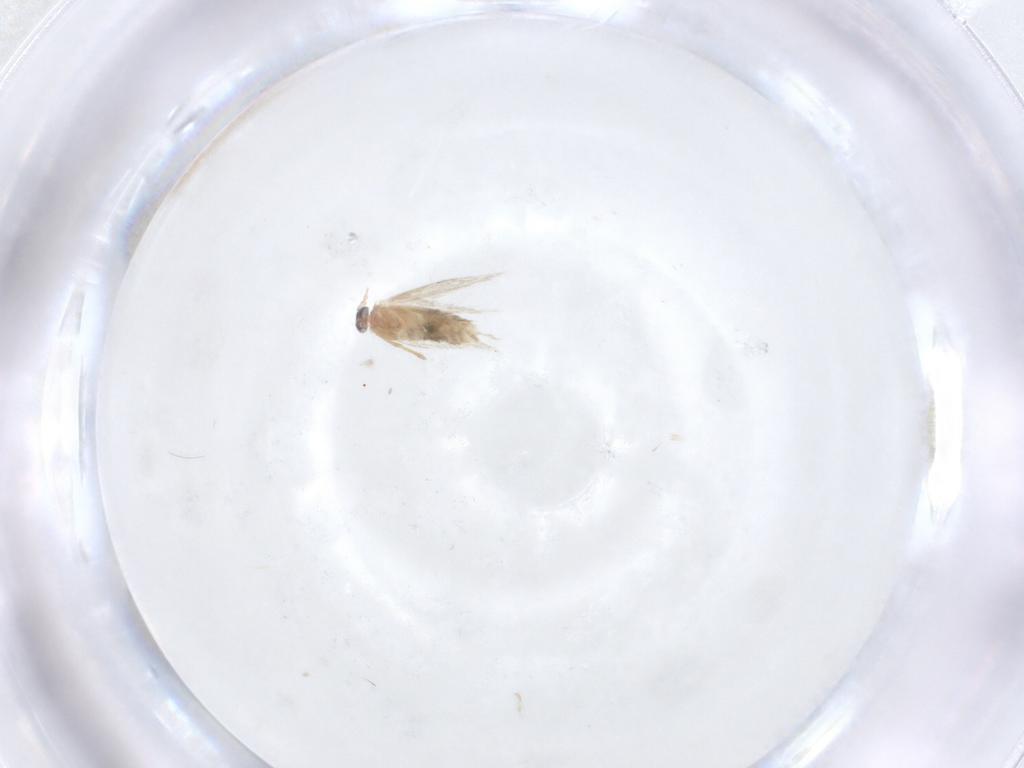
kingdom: Animalia
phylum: Arthropoda
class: Insecta
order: Lepidoptera
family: Nepticulidae
